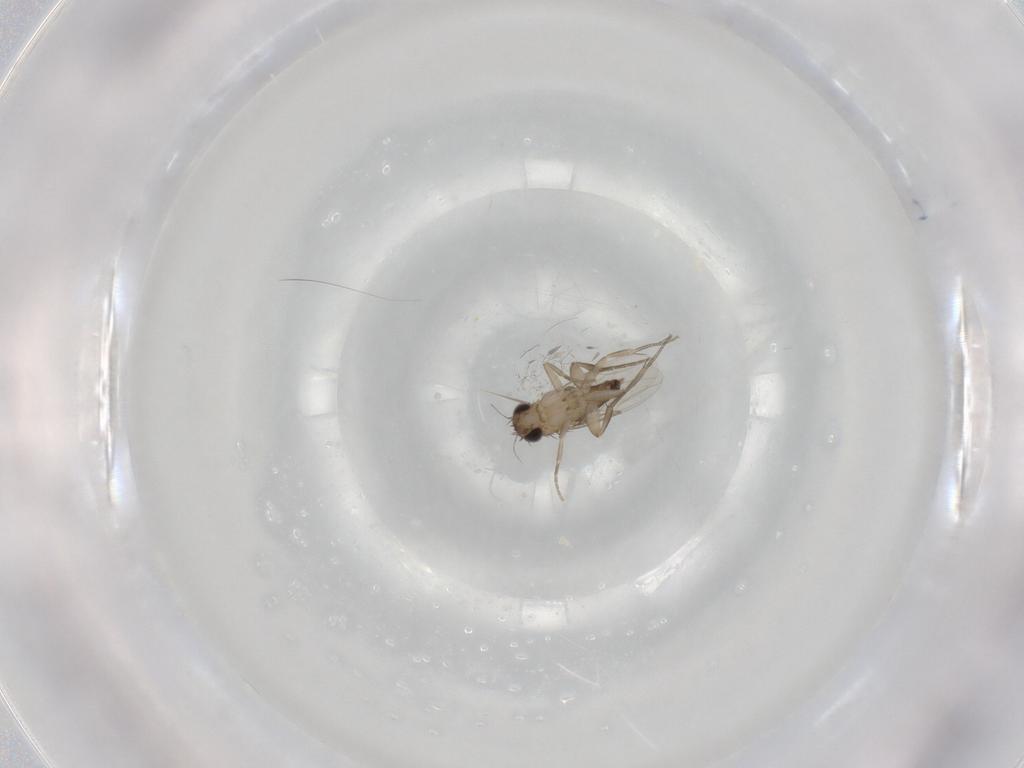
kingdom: Animalia
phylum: Arthropoda
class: Insecta
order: Diptera
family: Phoridae
